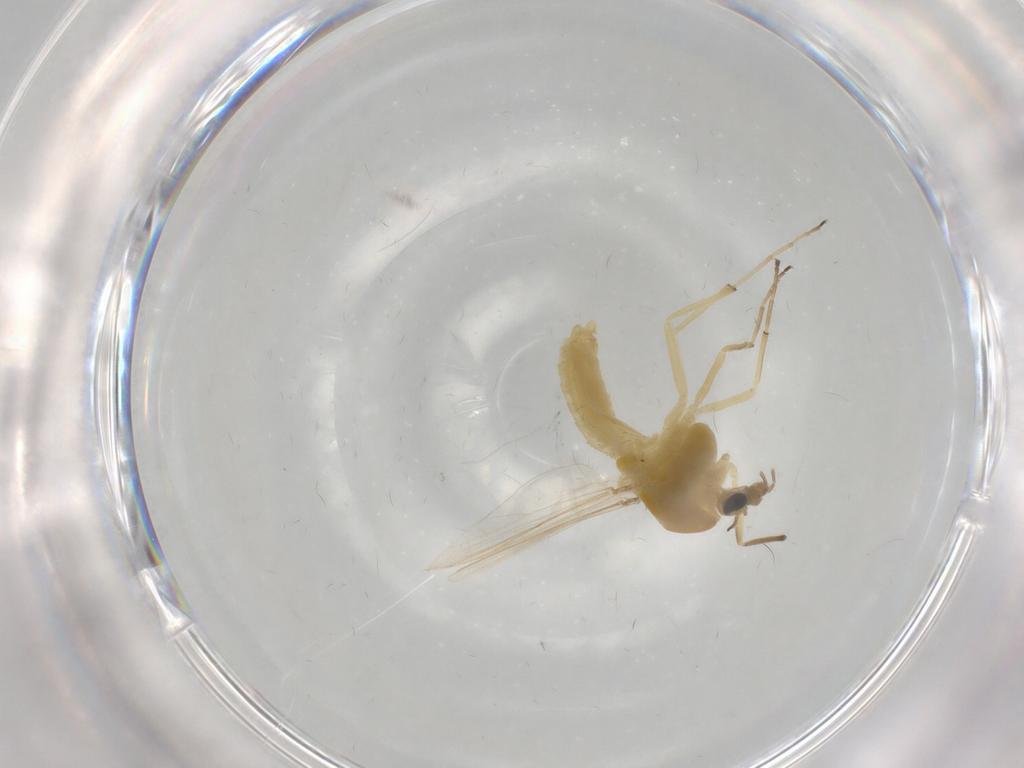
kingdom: Animalia
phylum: Arthropoda
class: Insecta
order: Diptera
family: Chironomidae
